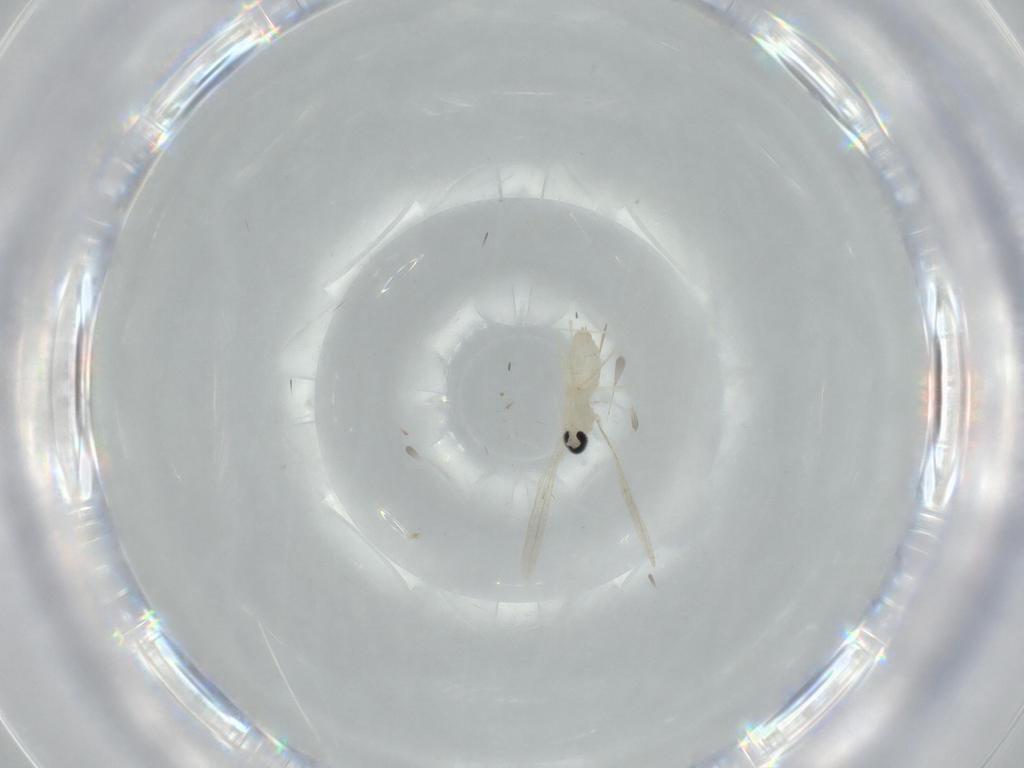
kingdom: Animalia
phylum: Arthropoda
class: Insecta
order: Diptera
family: Cecidomyiidae
